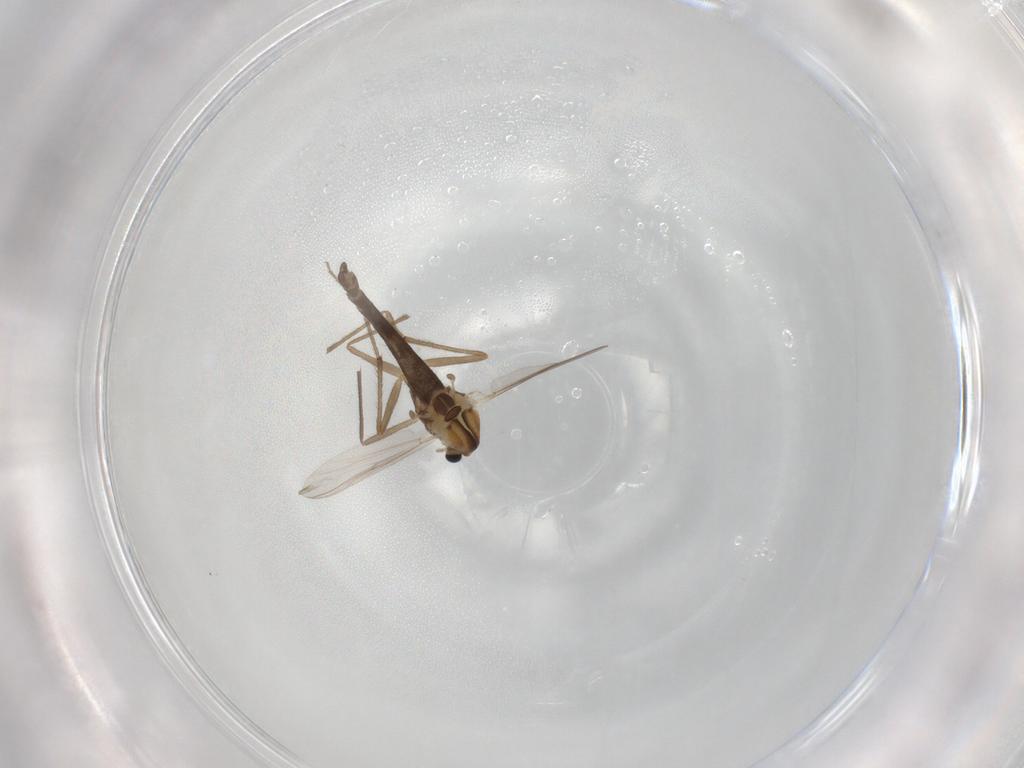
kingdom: Animalia
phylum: Arthropoda
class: Insecta
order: Diptera
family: Chironomidae
